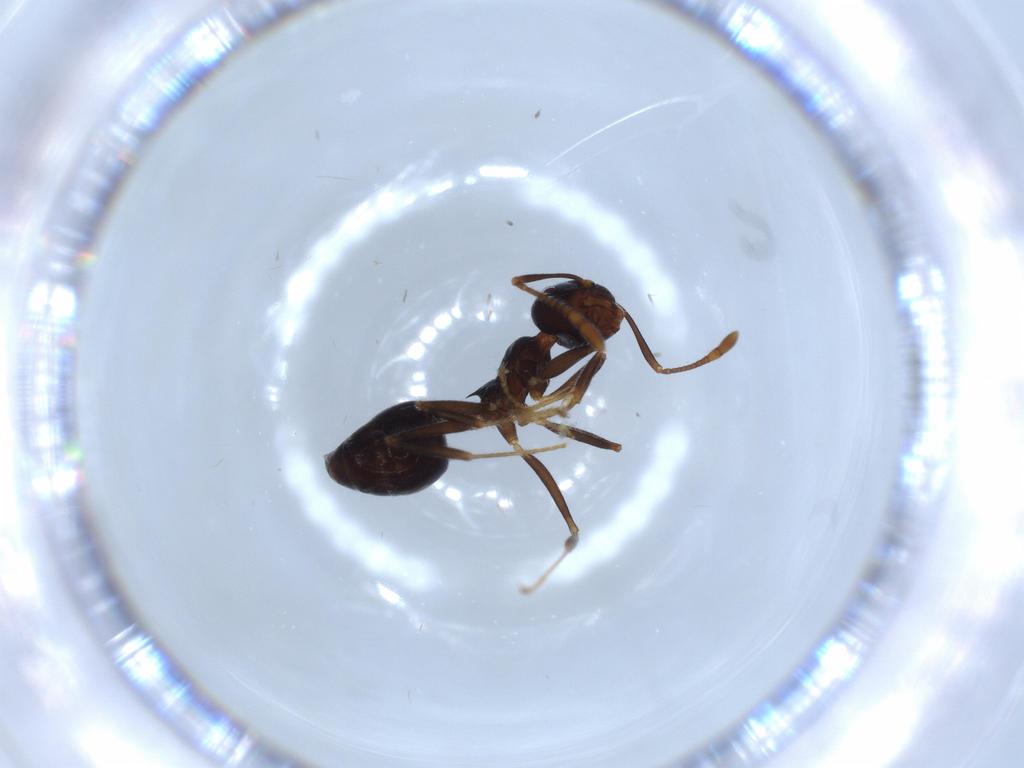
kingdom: Animalia
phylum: Arthropoda
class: Insecta
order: Hymenoptera
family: Formicidae
